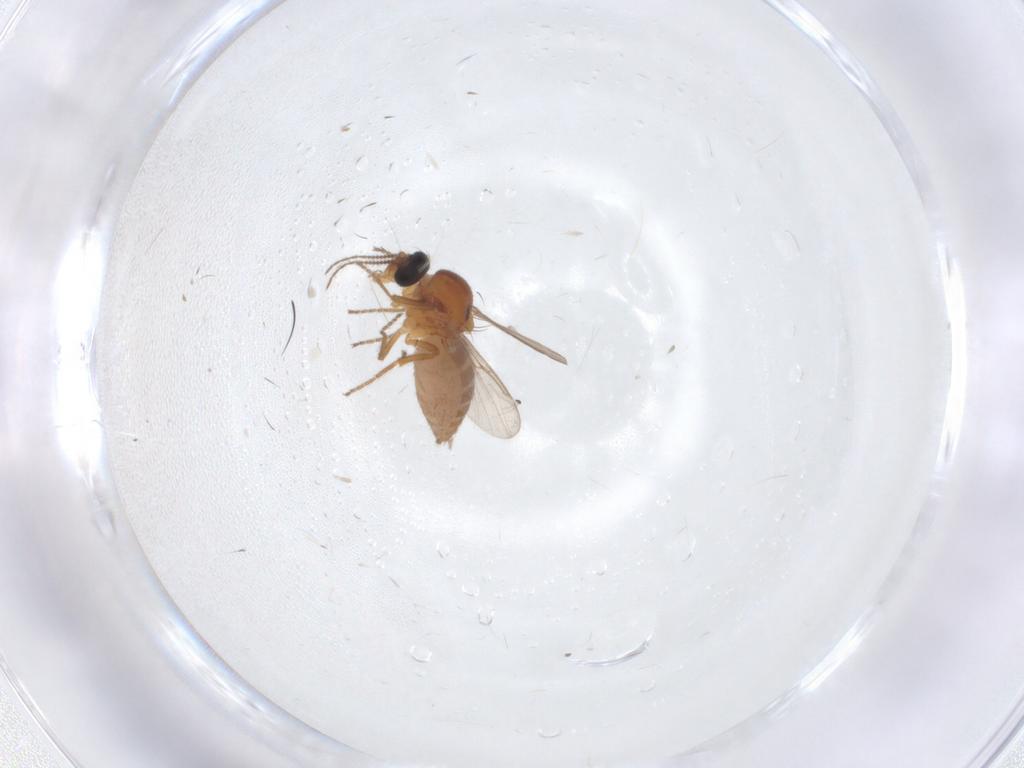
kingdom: Animalia
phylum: Arthropoda
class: Insecta
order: Diptera
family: Ceratopogonidae
